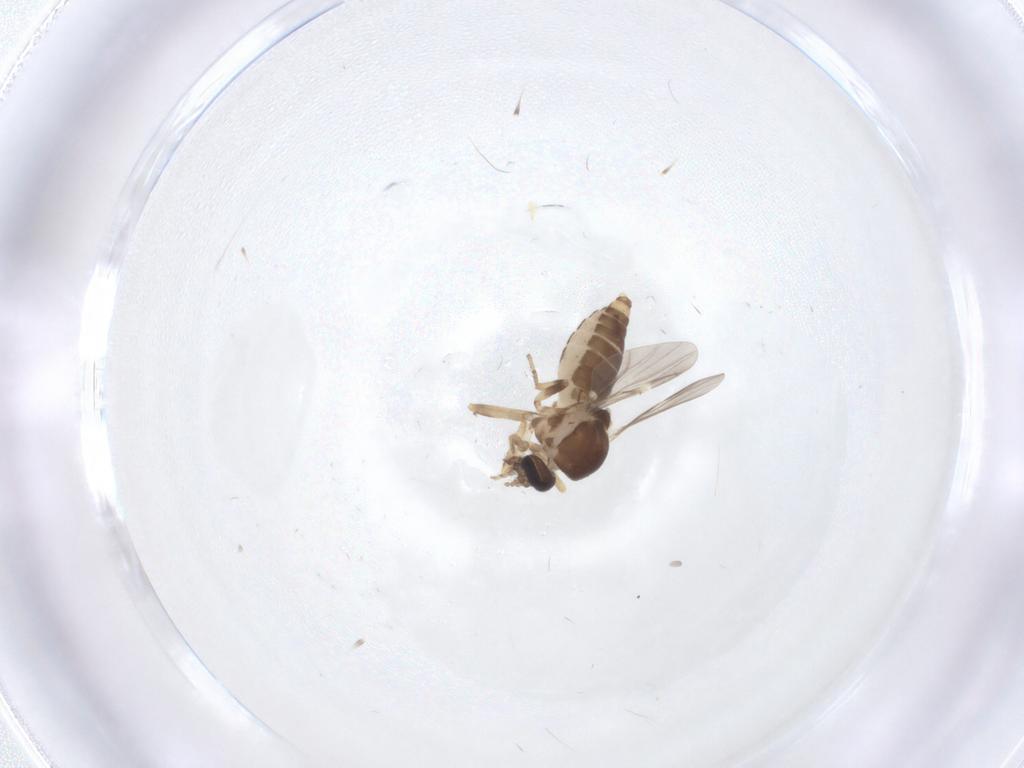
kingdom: Animalia
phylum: Arthropoda
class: Insecta
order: Diptera
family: Ceratopogonidae
